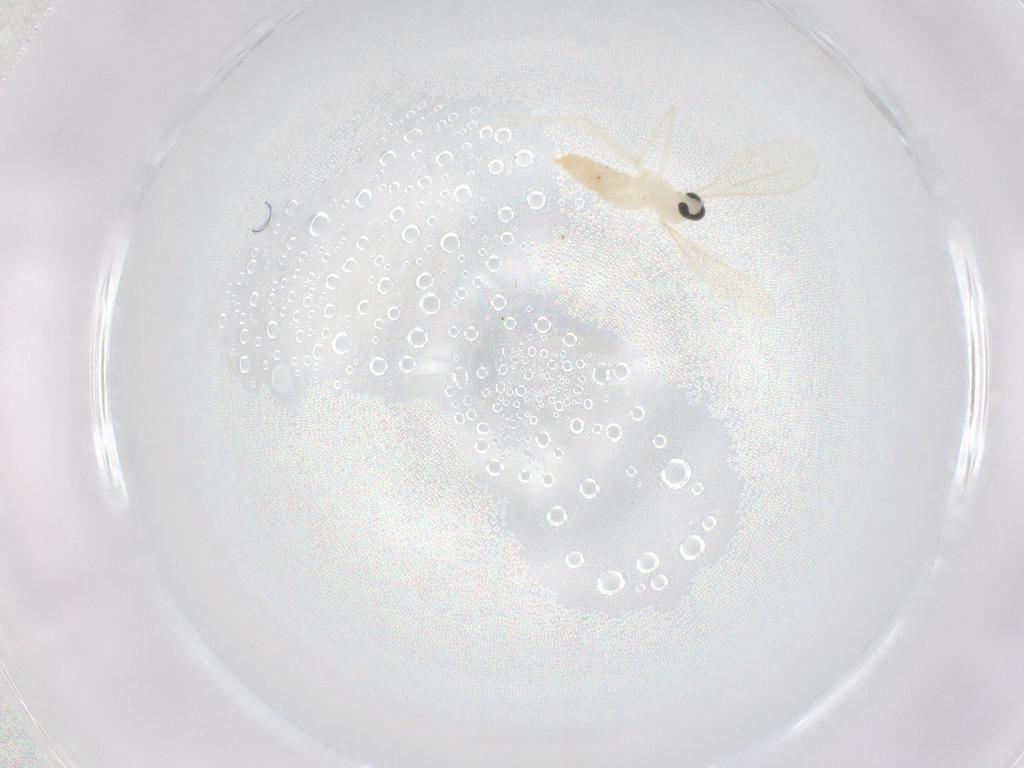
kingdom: Animalia
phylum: Arthropoda
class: Insecta
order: Diptera
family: Cecidomyiidae
